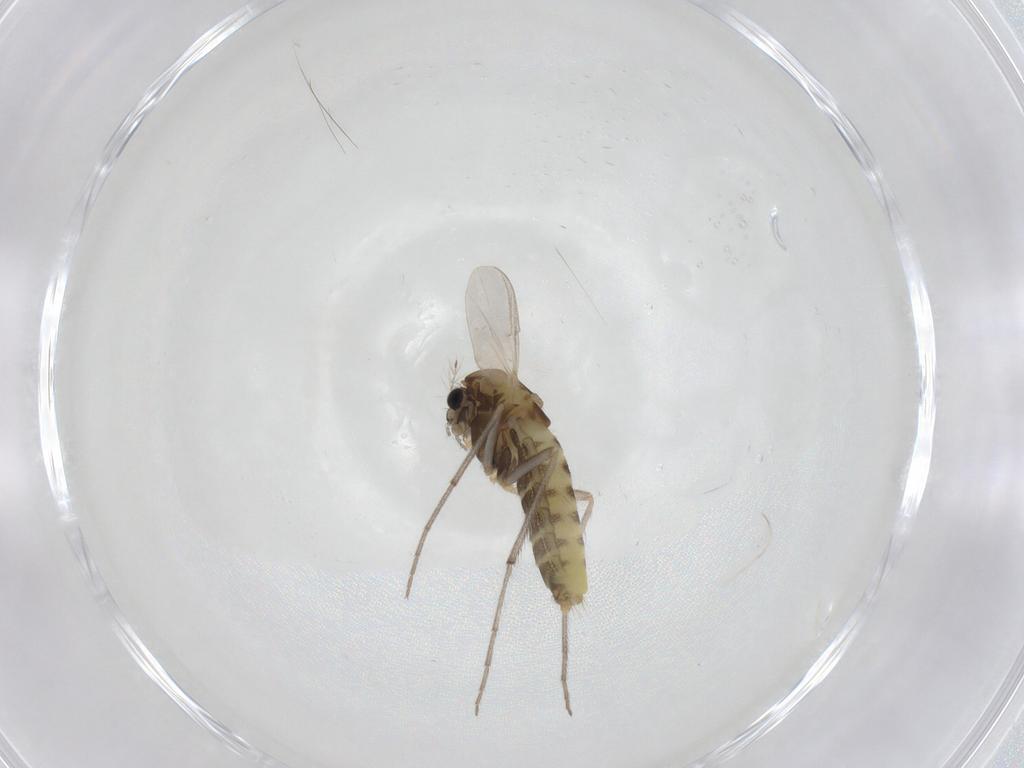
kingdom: Animalia
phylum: Arthropoda
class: Insecta
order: Diptera
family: Chironomidae
